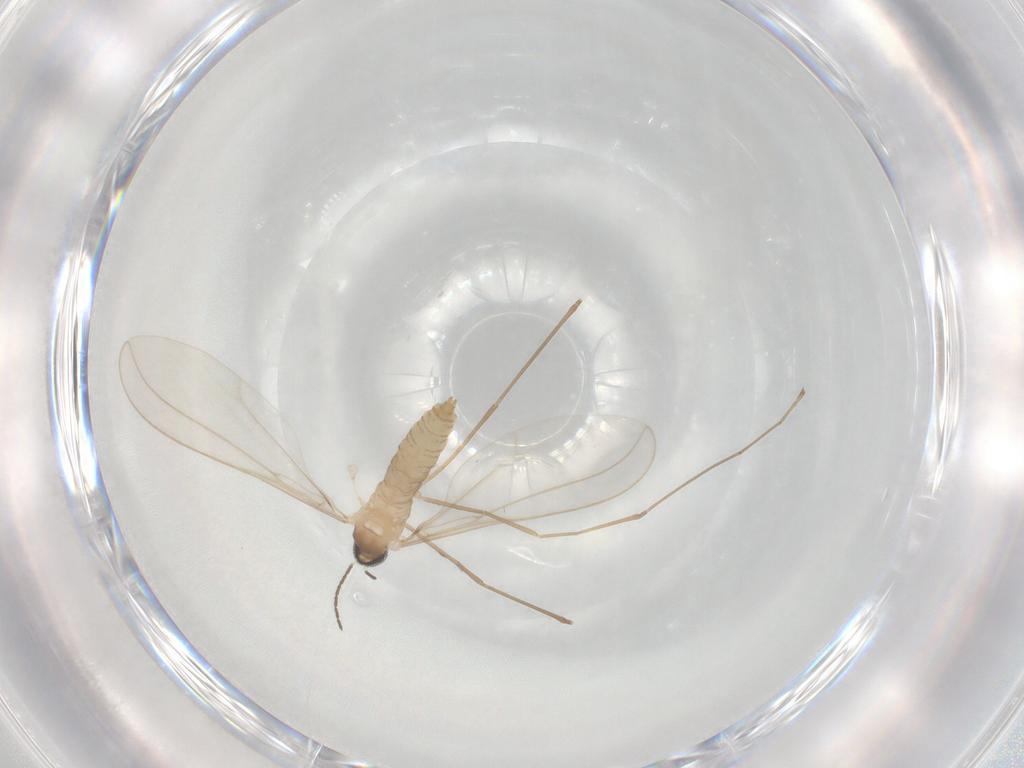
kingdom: Animalia
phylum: Arthropoda
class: Insecta
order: Diptera
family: Cecidomyiidae
